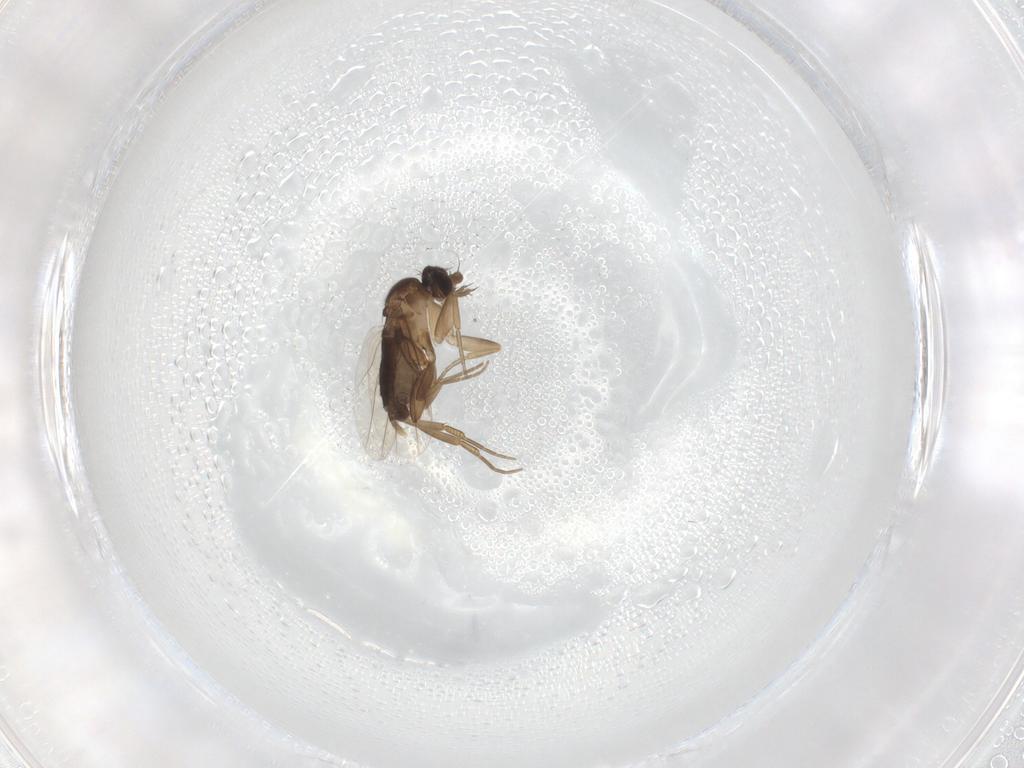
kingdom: Animalia
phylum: Arthropoda
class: Insecta
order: Diptera
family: Phoridae
